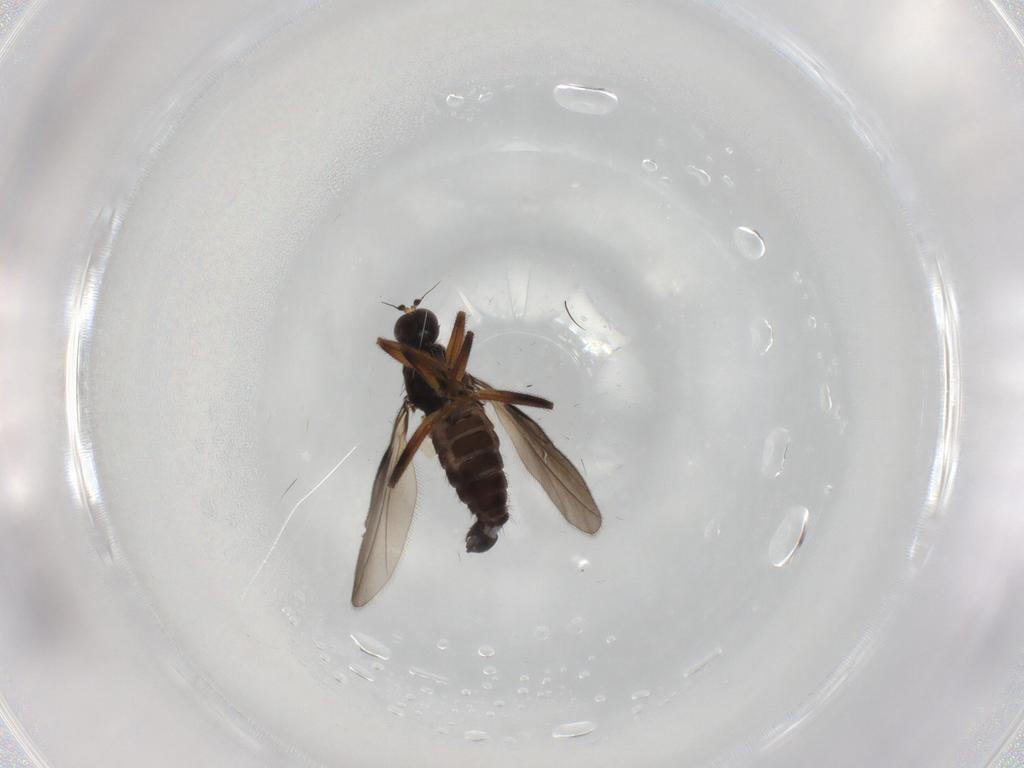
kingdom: Animalia
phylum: Arthropoda
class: Insecta
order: Diptera
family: Hybotidae
